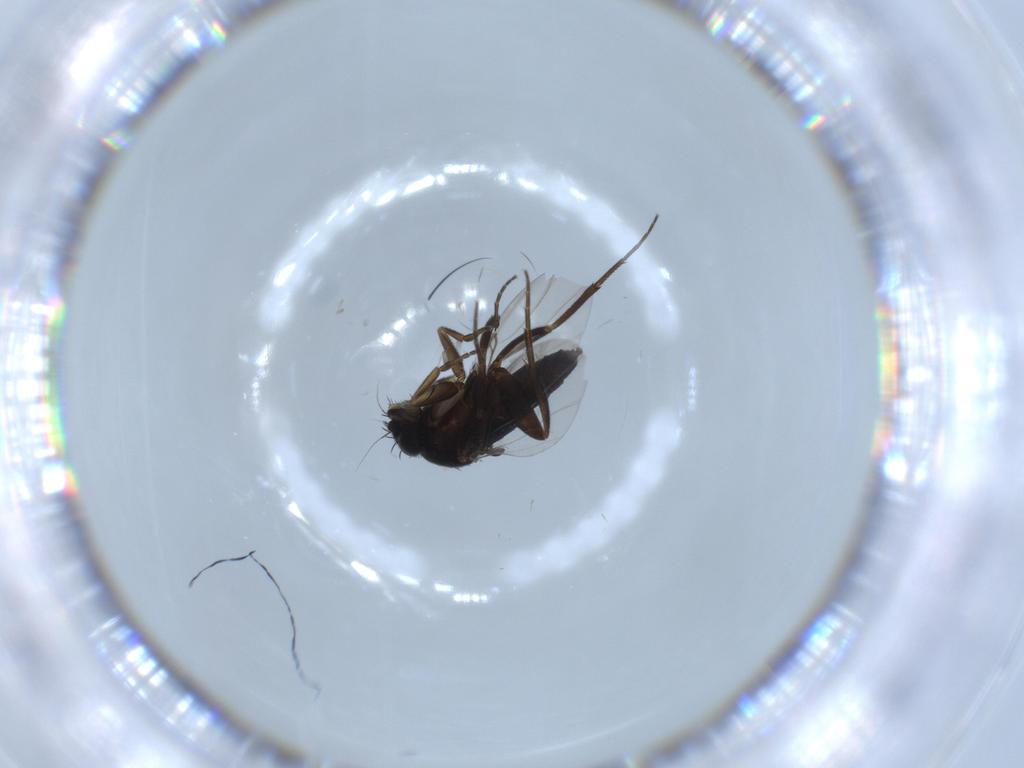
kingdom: Animalia
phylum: Arthropoda
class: Insecta
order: Diptera
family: Phoridae
